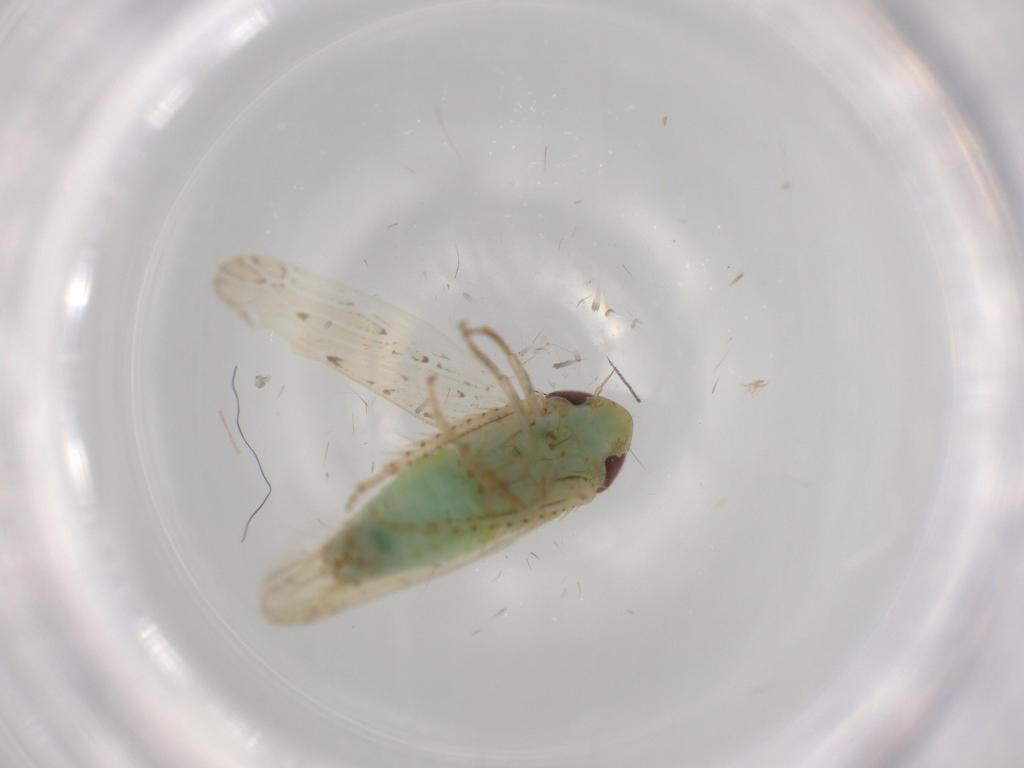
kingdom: Animalia
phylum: Arthropoda
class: Insecta
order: Hemiptera
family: Cicadellidae
